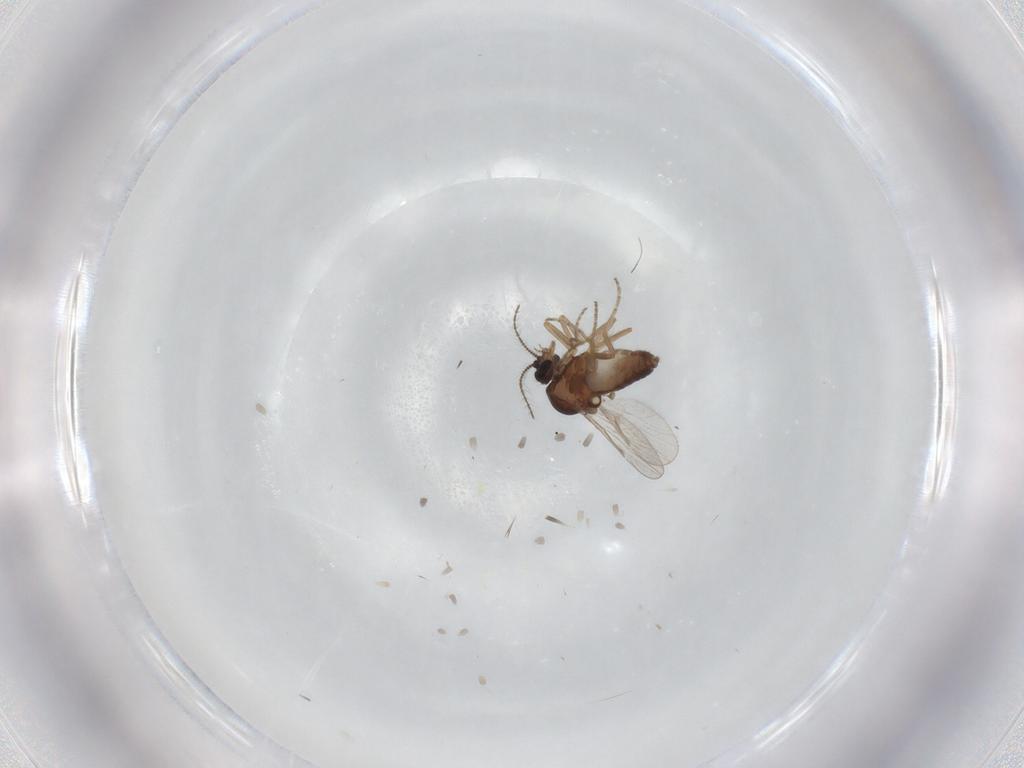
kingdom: Animalia
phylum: Arthropoda
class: Insecta
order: Diptera
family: Ceratopogonidae
